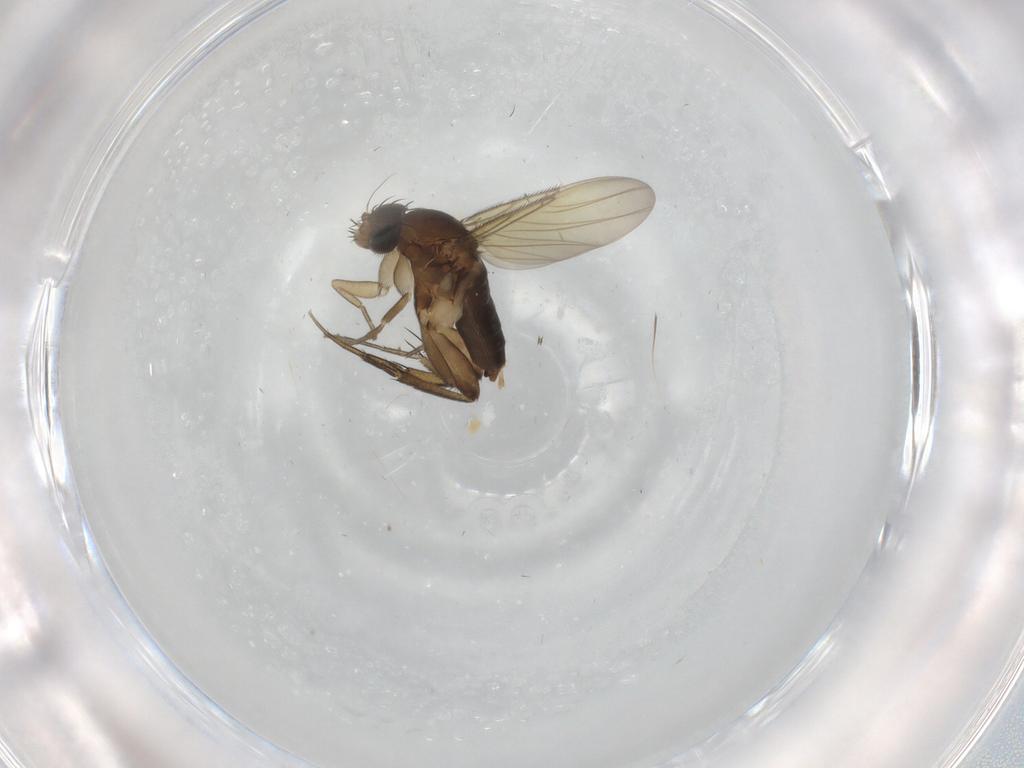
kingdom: Animalia
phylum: Arthropoda
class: Insecta
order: Diptera
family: Phoridae
